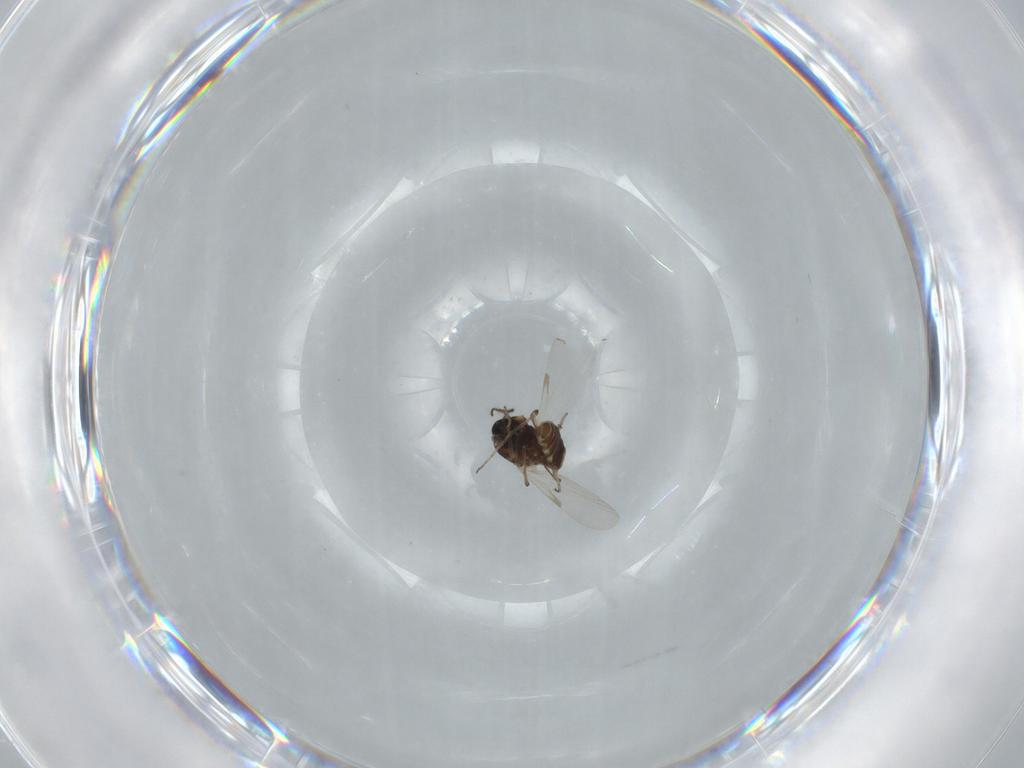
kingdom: Animalia
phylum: Arthropoda
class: Insecta
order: Diptera
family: Ceratopogonidae
